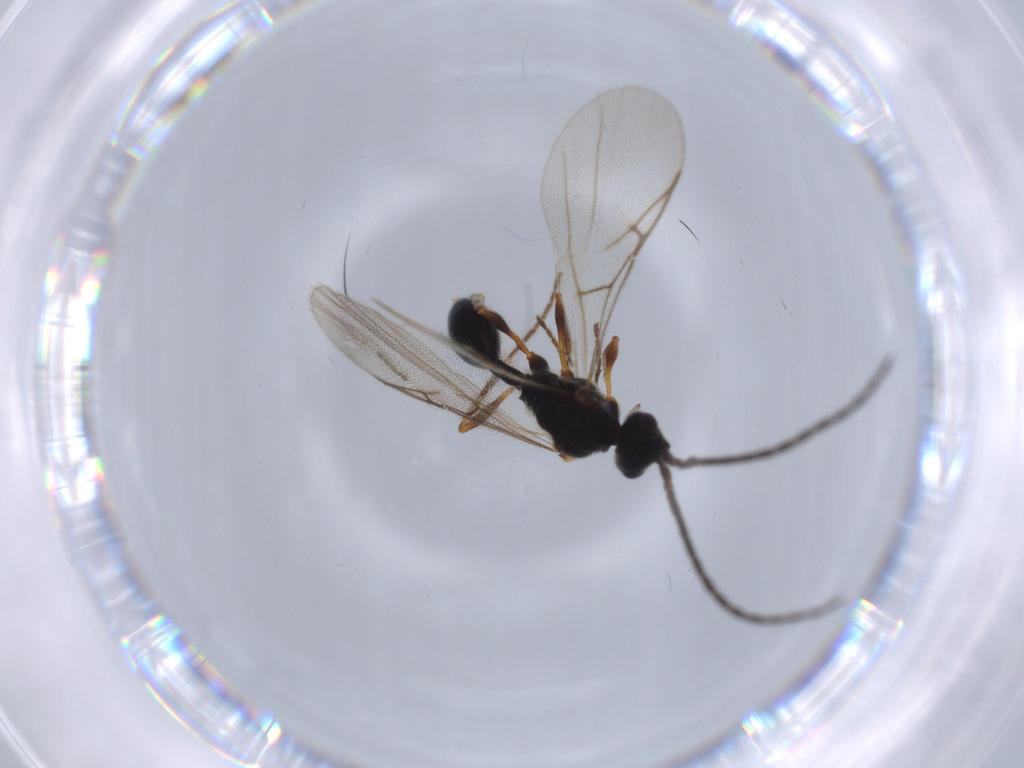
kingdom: Animalia
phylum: Arthropoda
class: Insecta
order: Hymenoptera
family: Diapriidae
